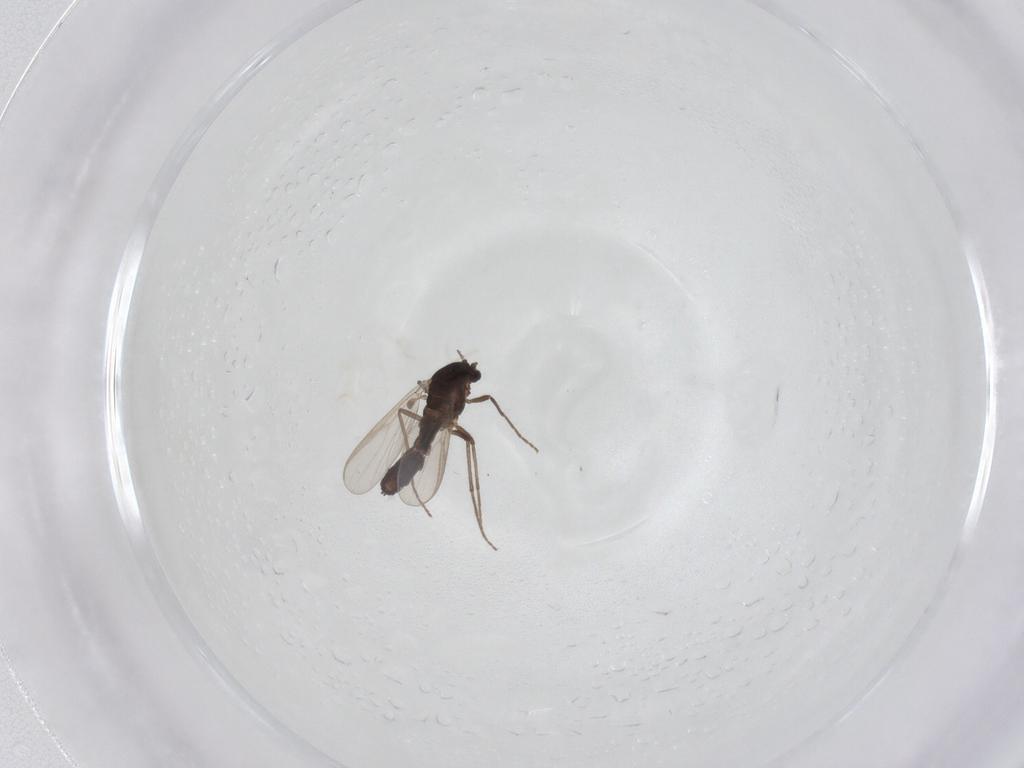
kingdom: Animalia
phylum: Arthropoda
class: Insecta
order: Diptera
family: Chironomidae
